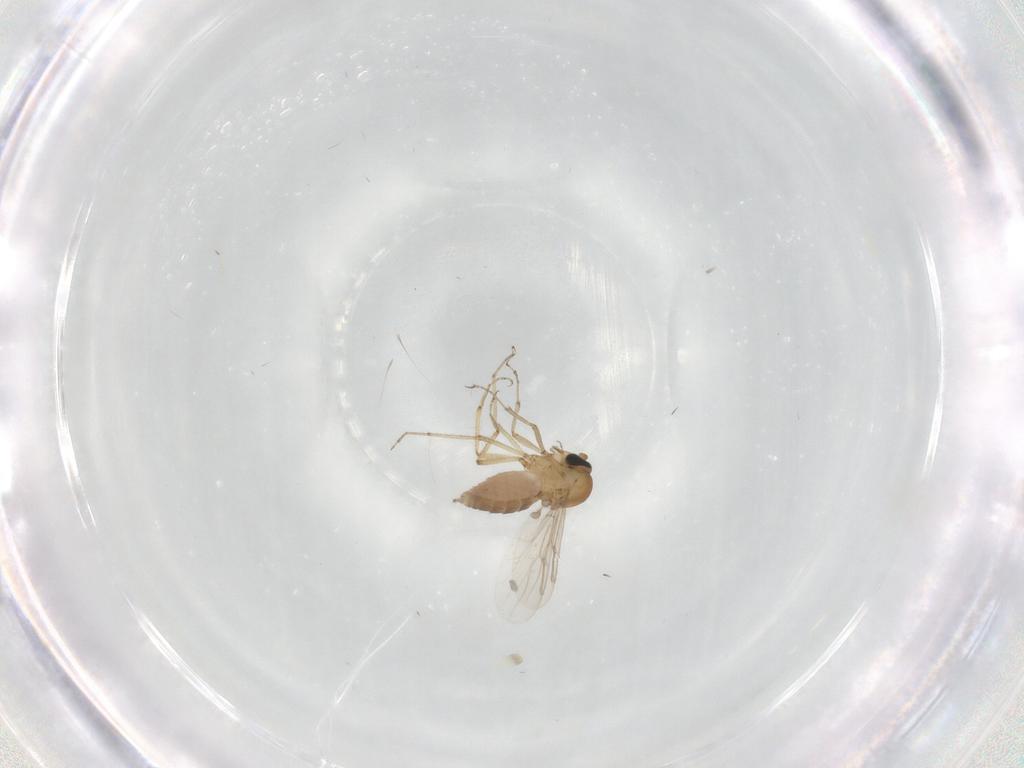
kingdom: Animalia
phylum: Arthropoda
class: Insecta
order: Diptera
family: Ceratopogonidae
